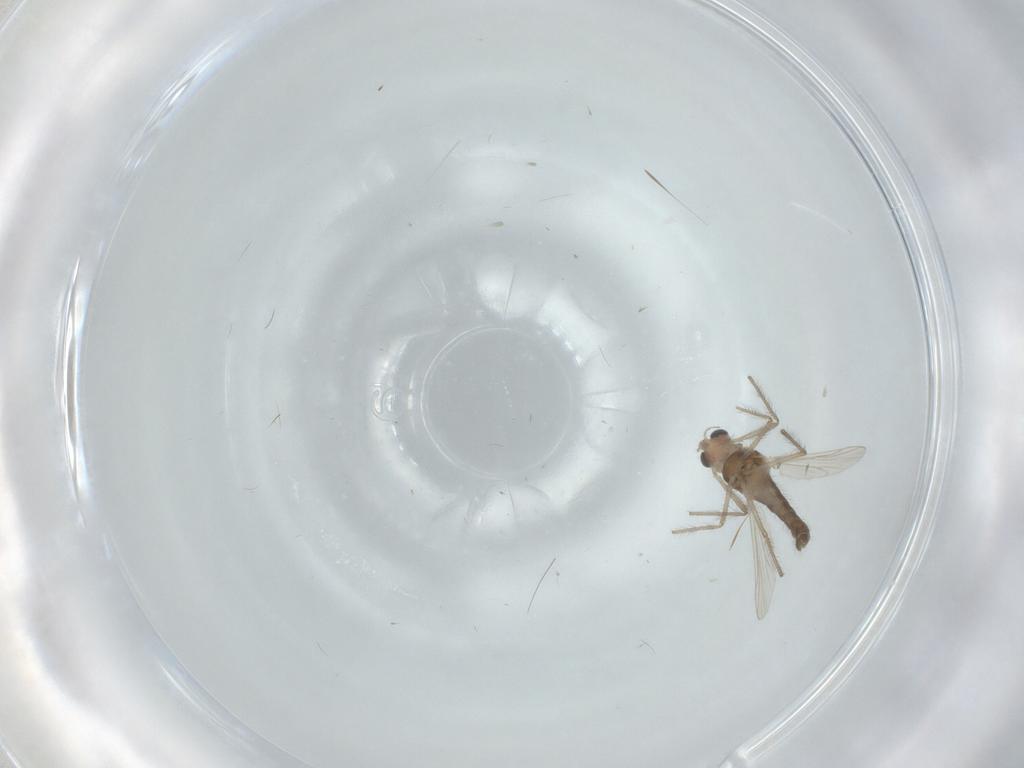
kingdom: Animalia
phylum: Arthropoda
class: Insecta
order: Diptera
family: Chironomidae
